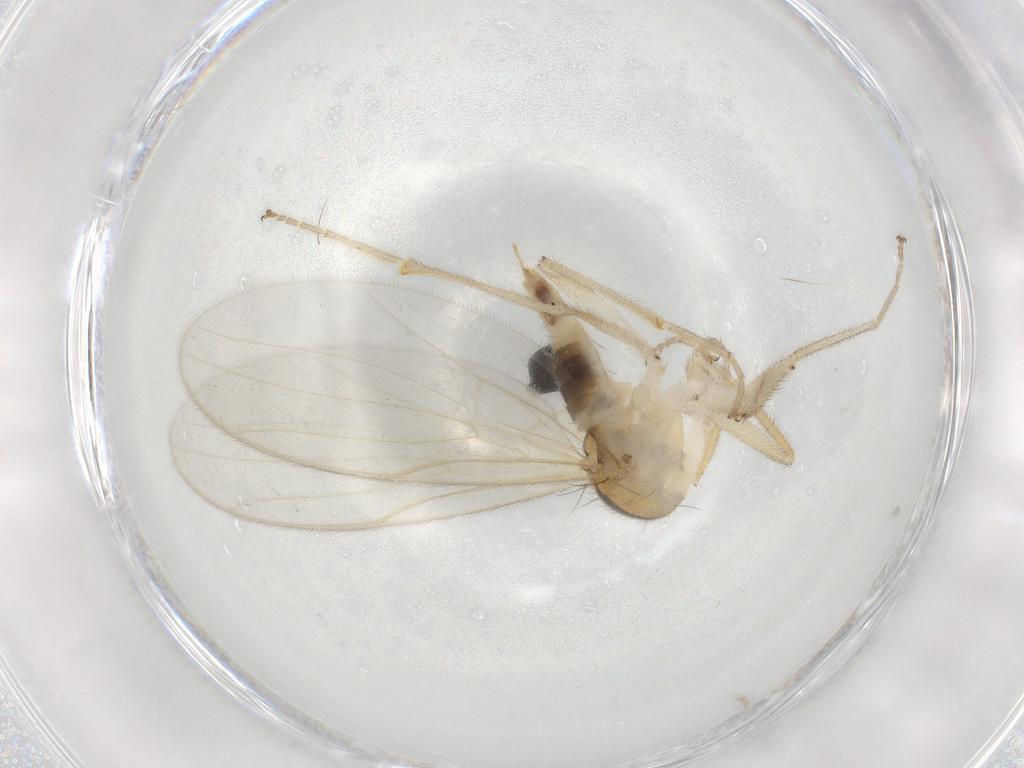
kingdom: Animalia
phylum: Arthropoda
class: Insecta
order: Diptera
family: Hybotidae
